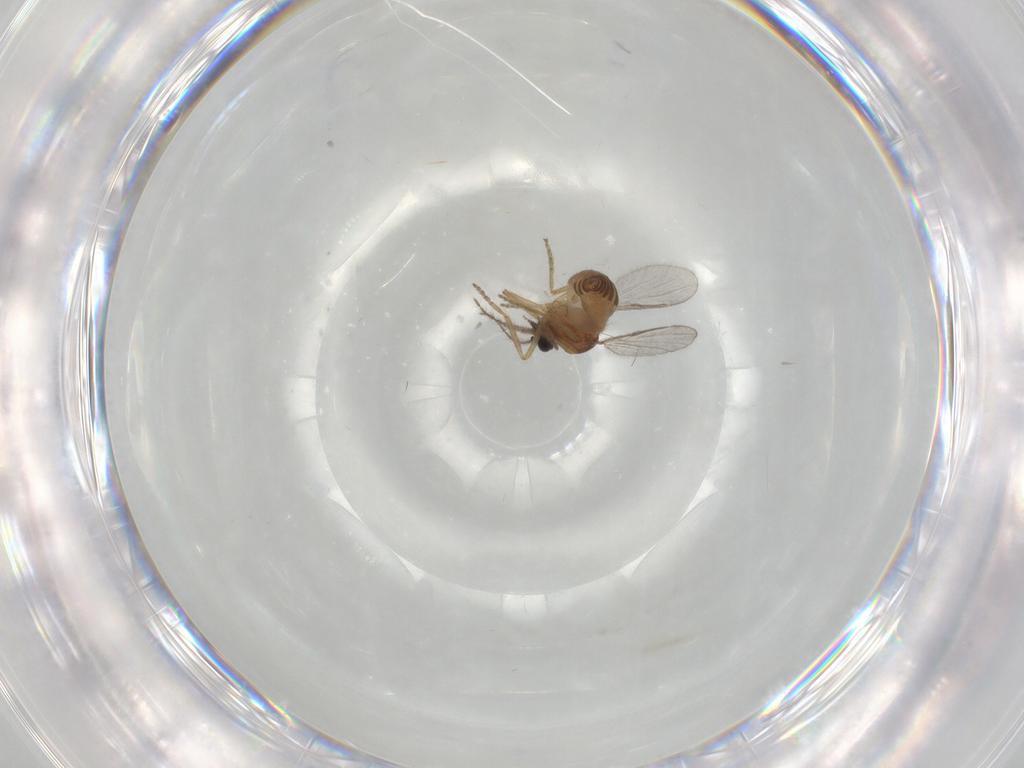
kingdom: Animalia
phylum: Arthropoda
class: Insecta
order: Diptera
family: Ceratopogonidae
